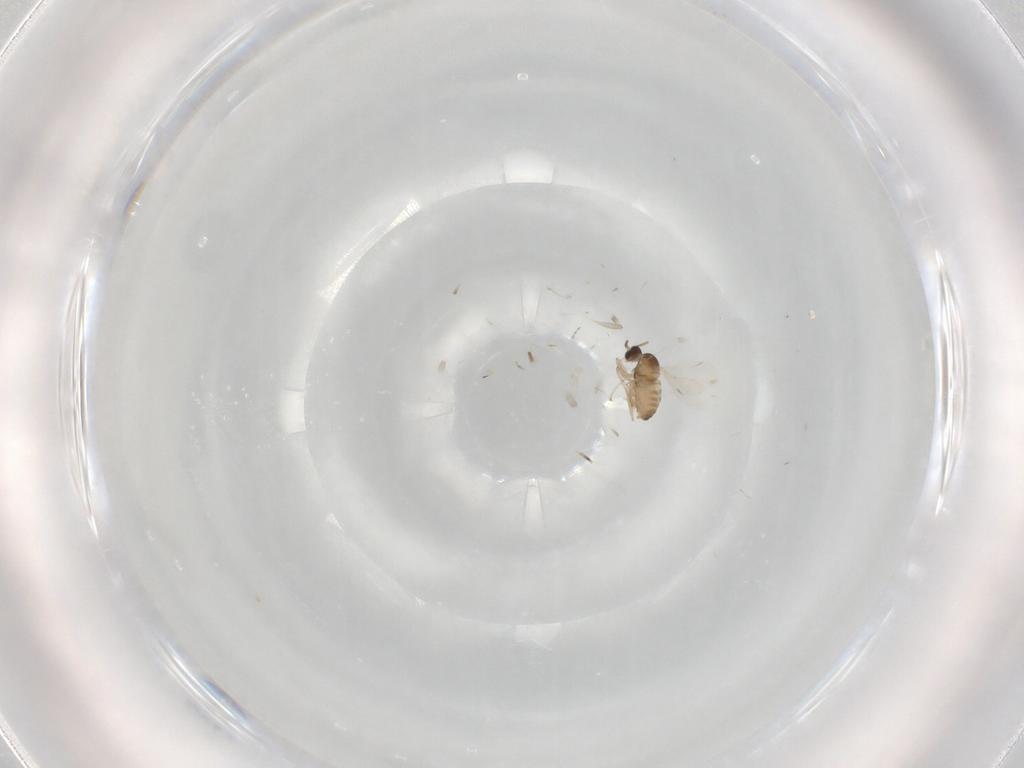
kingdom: Animalia
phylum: Arthropoda
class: Insecta
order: Diptera
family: Cecidomyiidae
